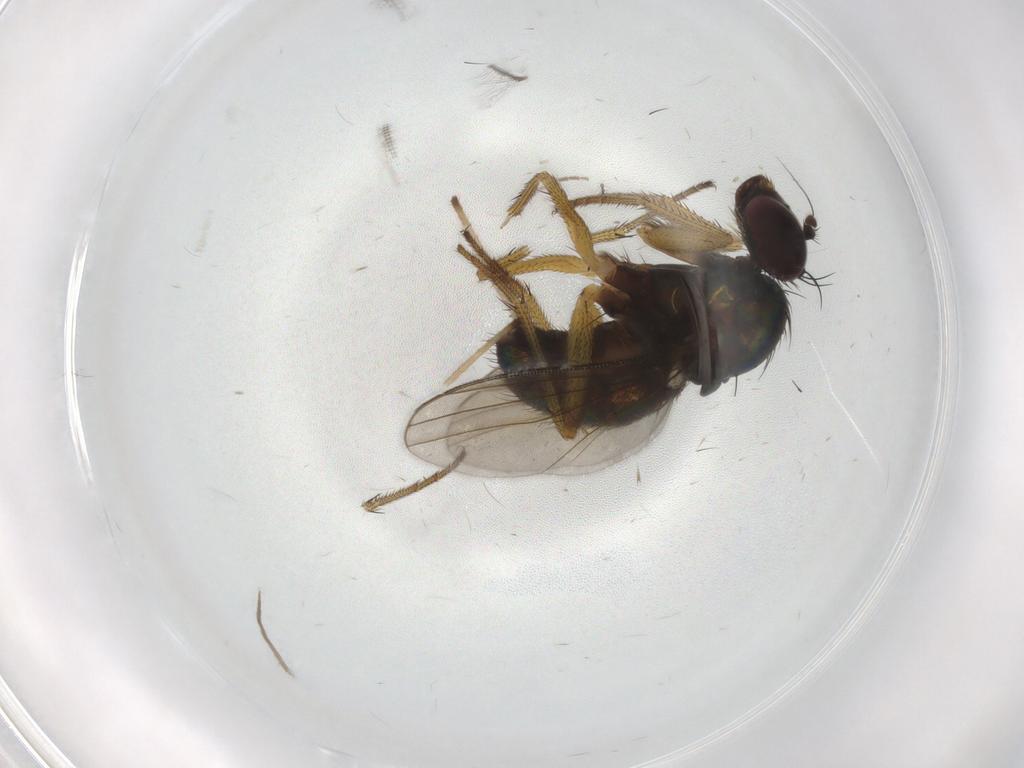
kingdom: Animalia
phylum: Arthropoda
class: Insecta
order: Diptera
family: Dolichopodidae
